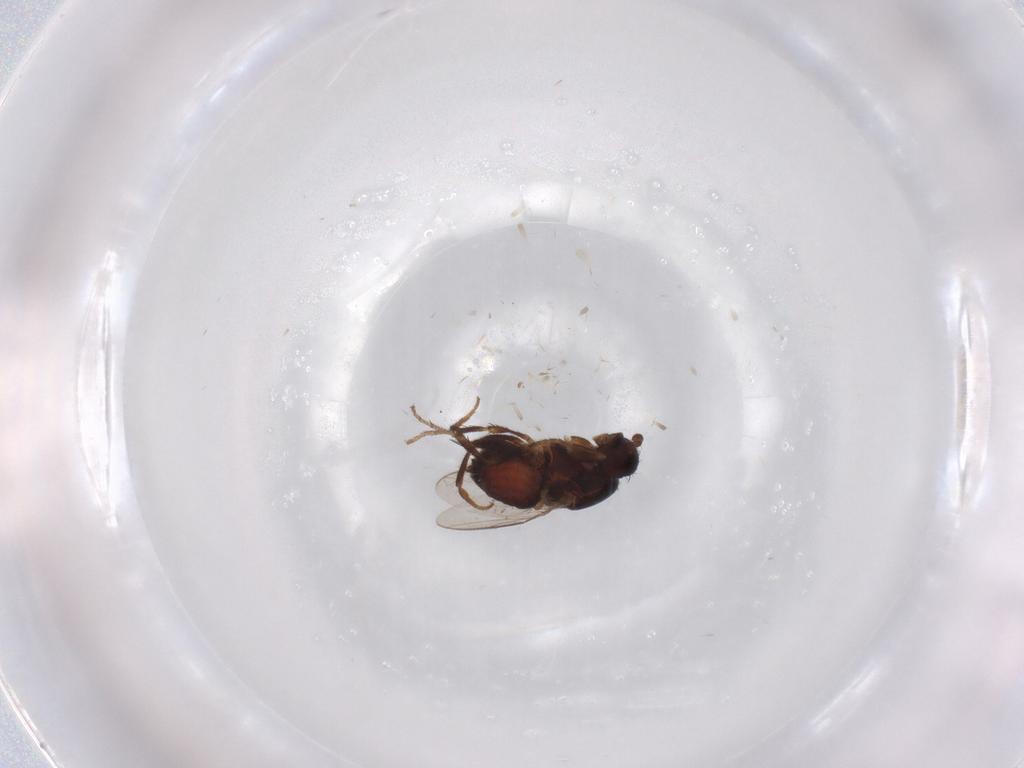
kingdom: Animalia
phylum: Arthropoda
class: Insecta
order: Diptera
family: Sphaeroceridae
